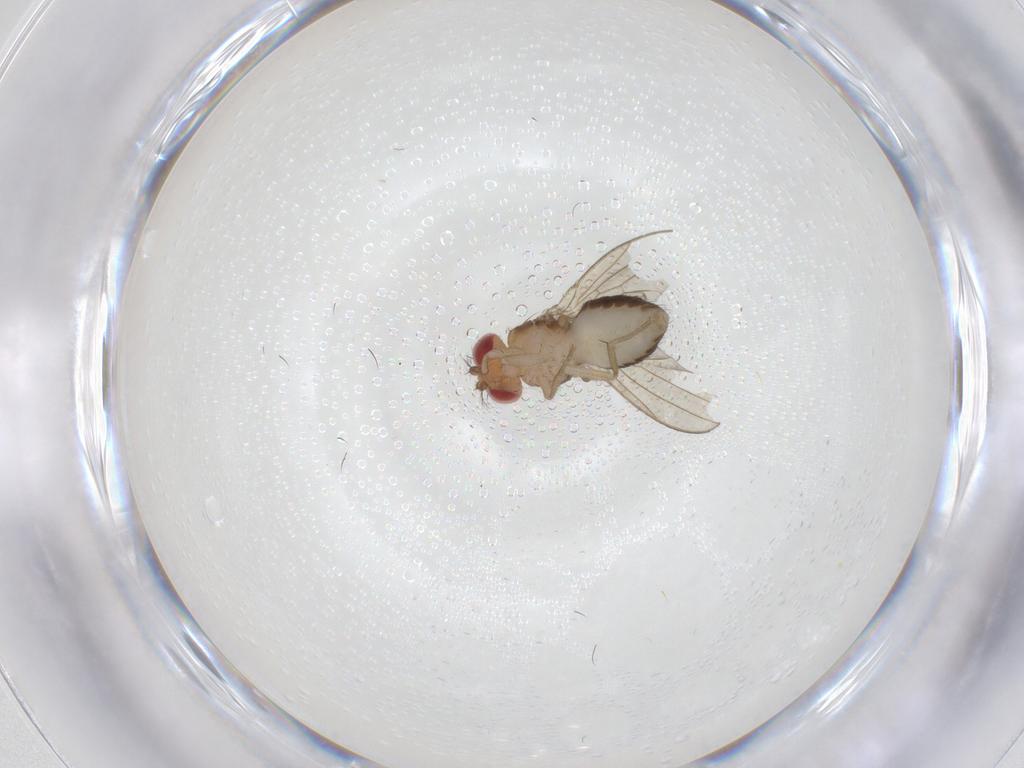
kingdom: Animalia
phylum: Arthropoda
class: Insecta
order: Diptera
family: Drosophilidae
